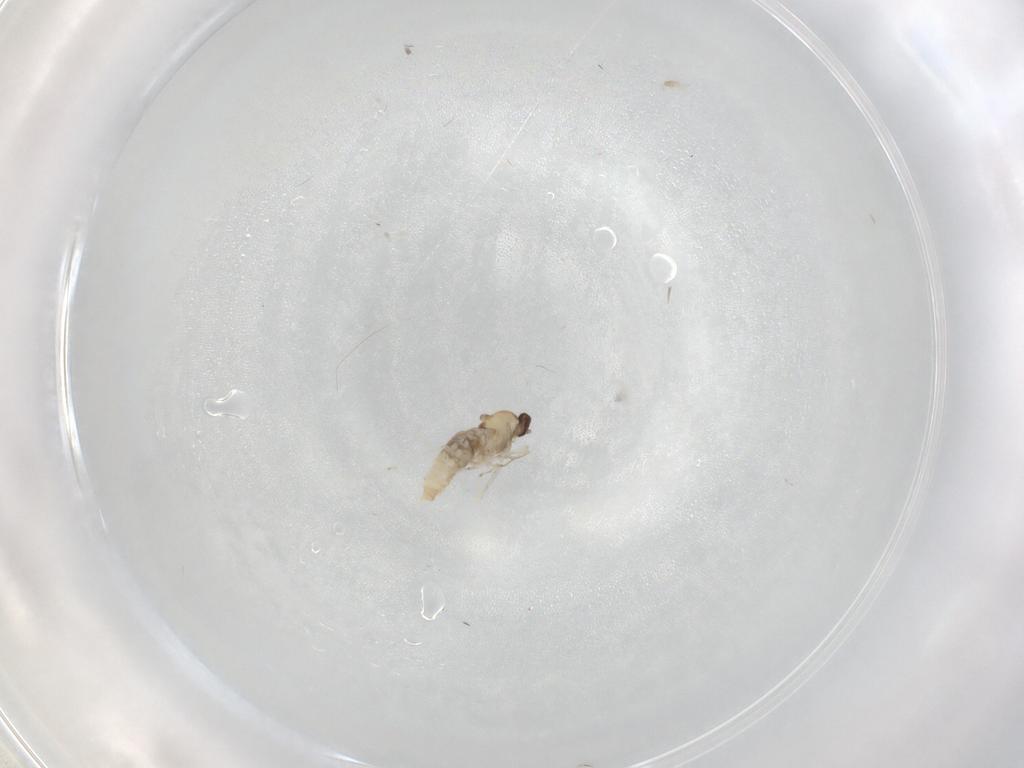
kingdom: Animalia
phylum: Arthropoda
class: Insecta
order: Diptera
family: Cecidomyiidae
